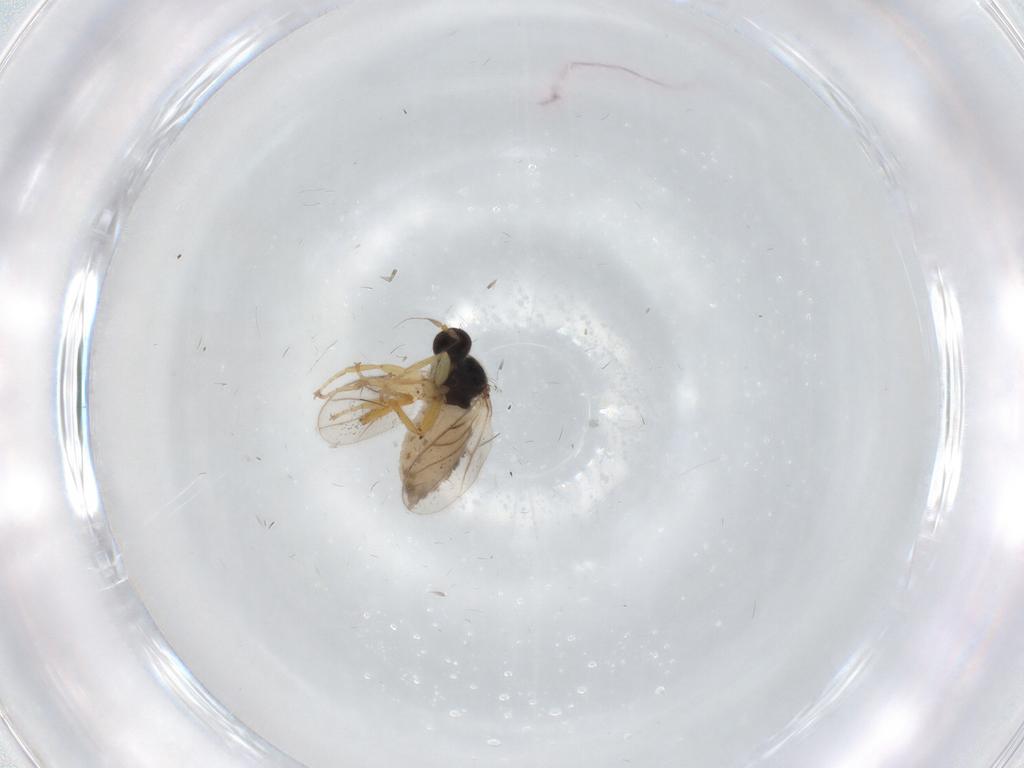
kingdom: Animalia
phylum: Arthropoda
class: Insecta
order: Diptera
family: Hybotidae
